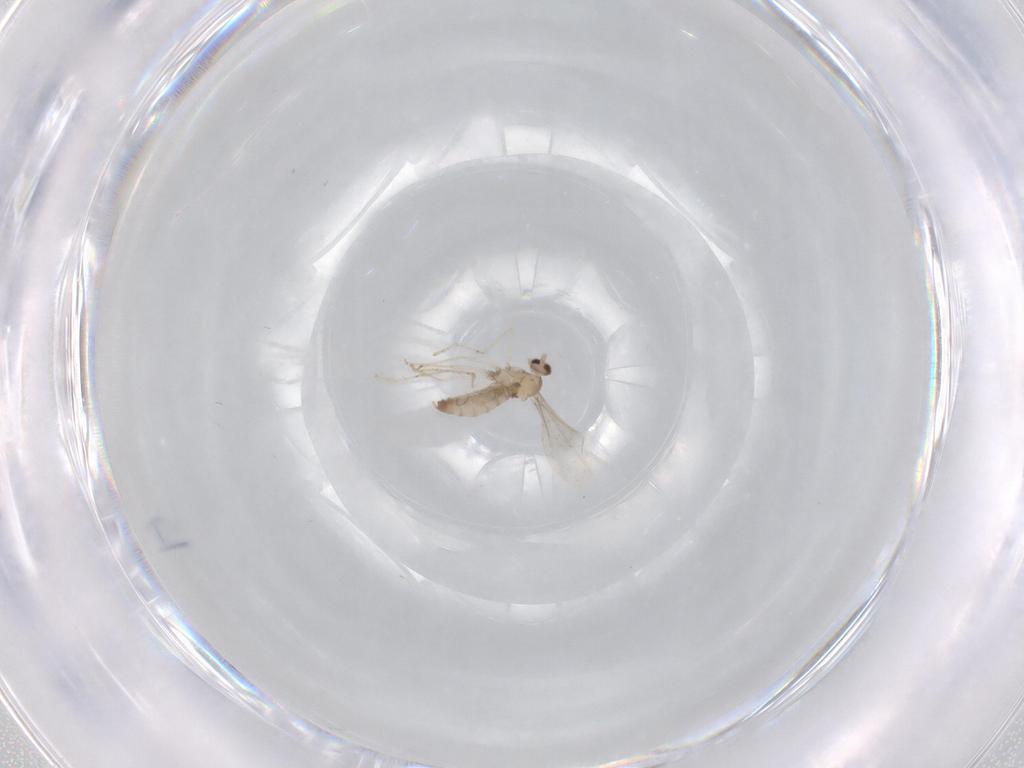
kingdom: Animalia
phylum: Arthropoda
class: Insecta
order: Diptera
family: Cecidomyiidae
